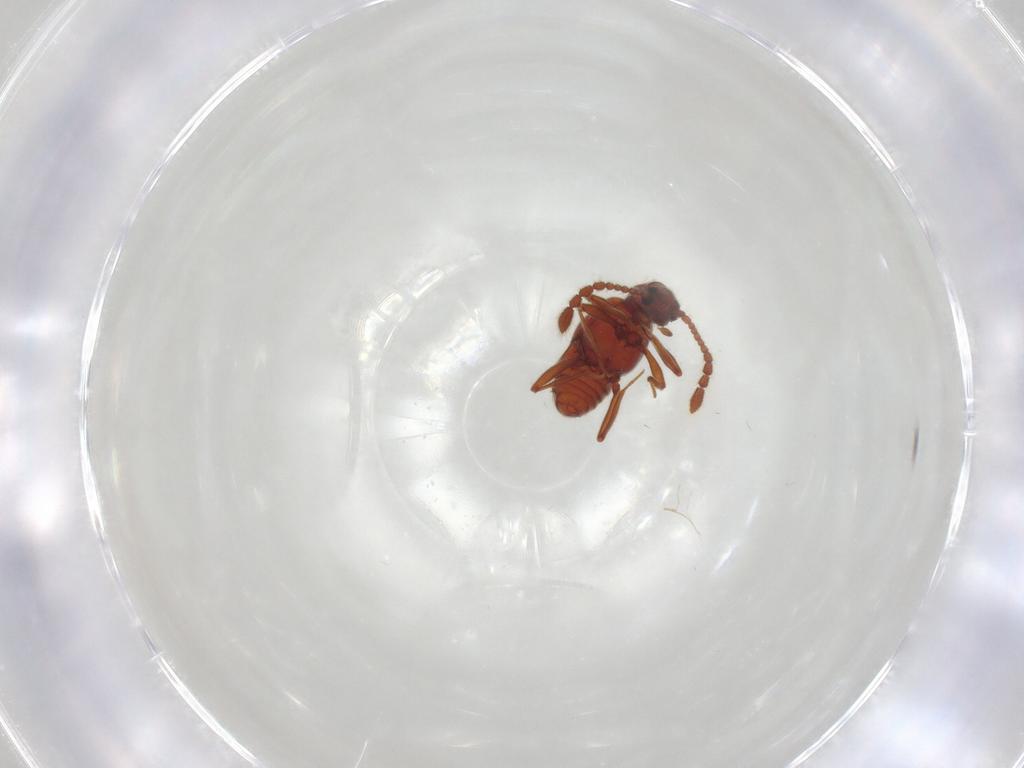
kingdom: Animalia
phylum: Arthropoda
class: Insecta
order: Coleoptera
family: Staphylinidae
